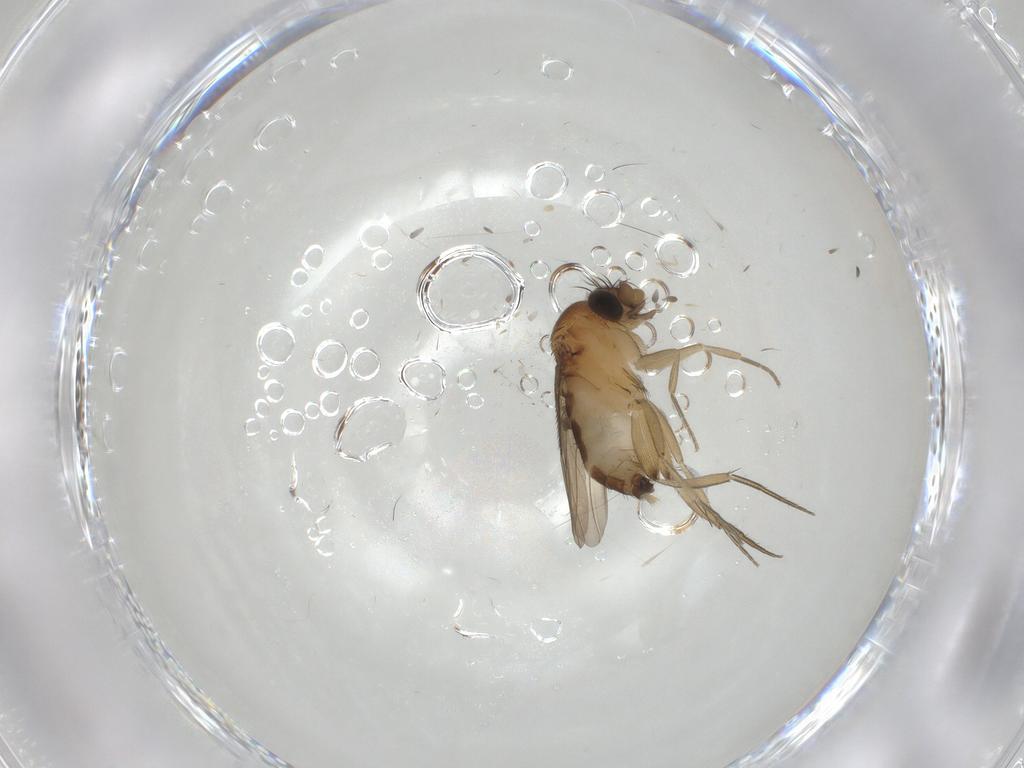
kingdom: Animalia
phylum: Arthropoda
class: Insecta
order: Diptera
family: Phoridae
